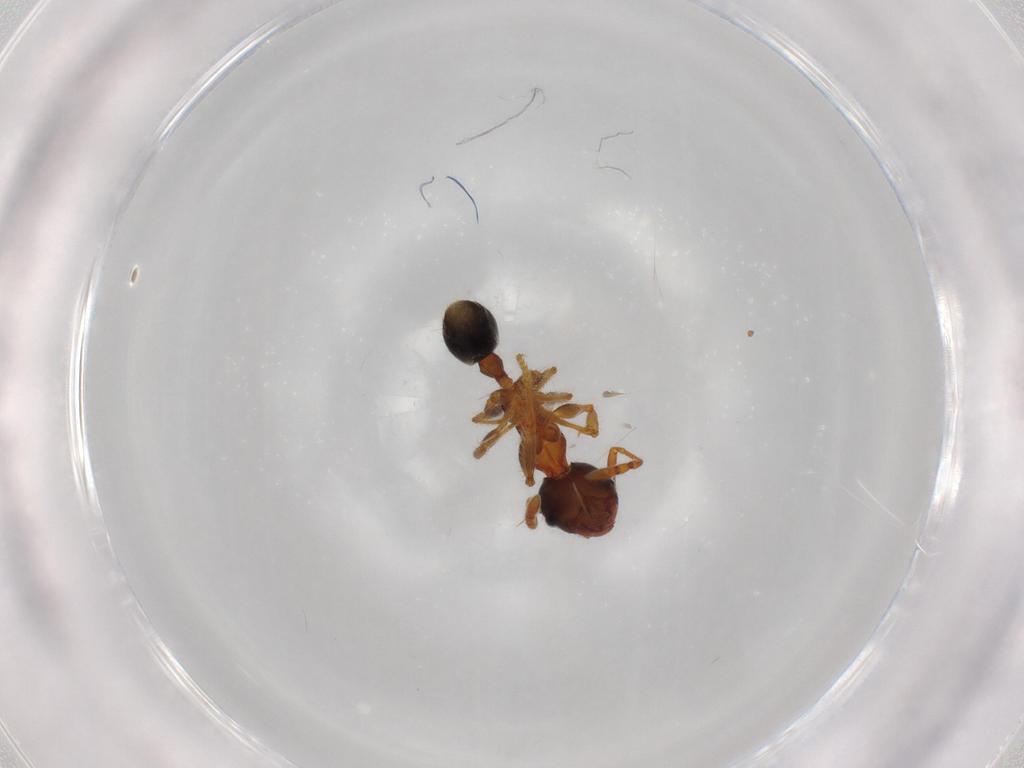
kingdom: Animalia
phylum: Arthropoda
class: Insecta
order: Hymenoptera
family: Formicidae
